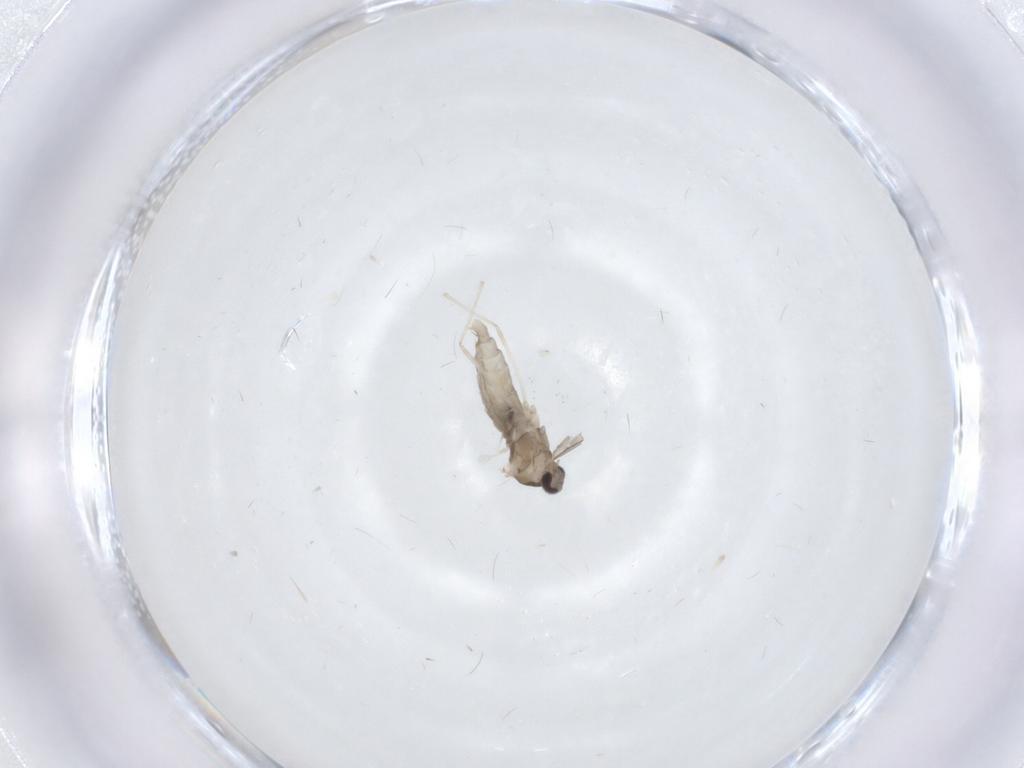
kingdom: Animalia
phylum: Arthropoda
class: Insecta
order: Diptera
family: Cecidomyiidae
